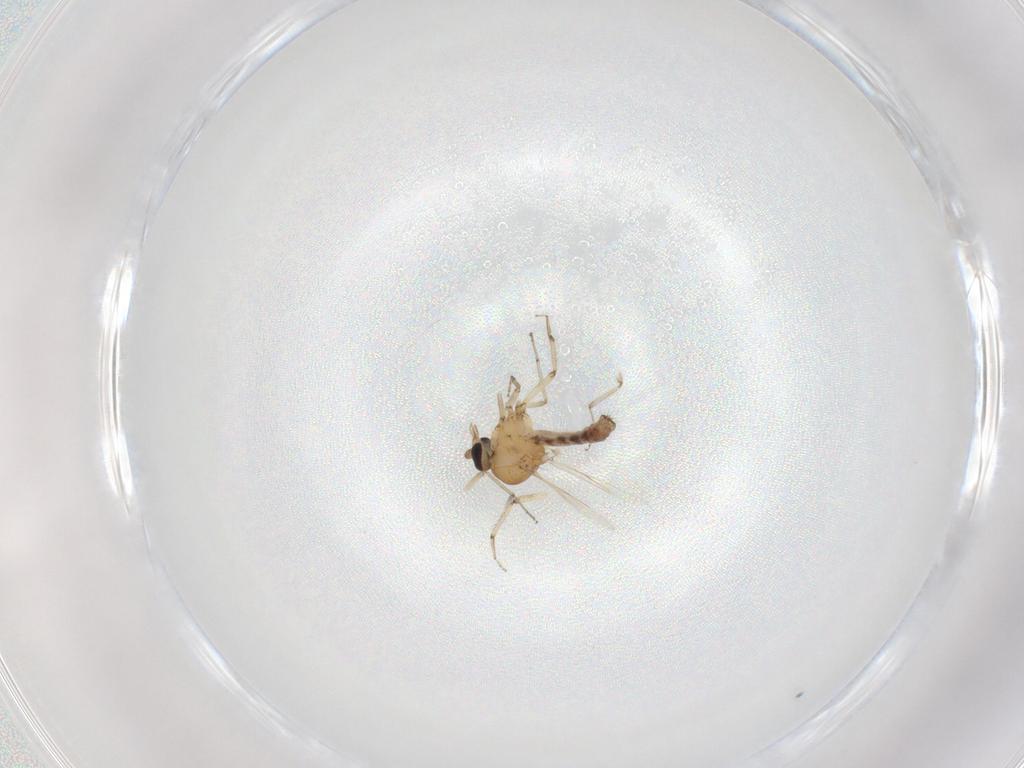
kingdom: Animalia
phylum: Arthropoda
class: Insecta
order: Diptera
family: Ceratopogonidae
